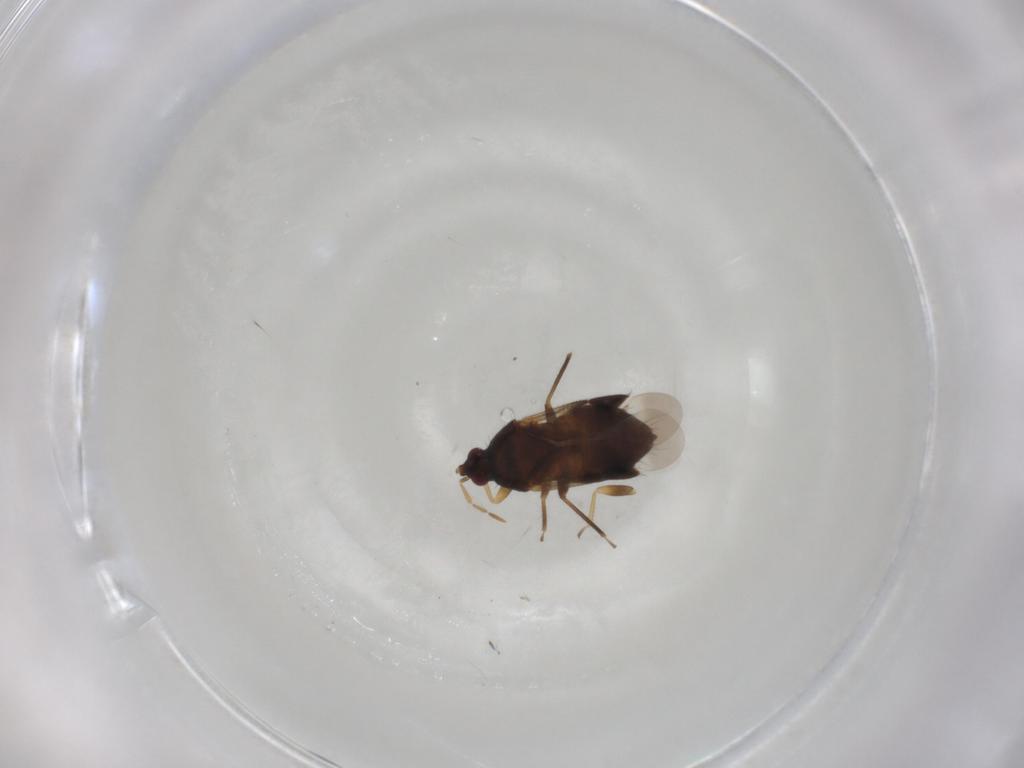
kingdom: Animalia
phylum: Arthropoda
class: Insecta
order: Hemiptera
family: Anthocoridae
